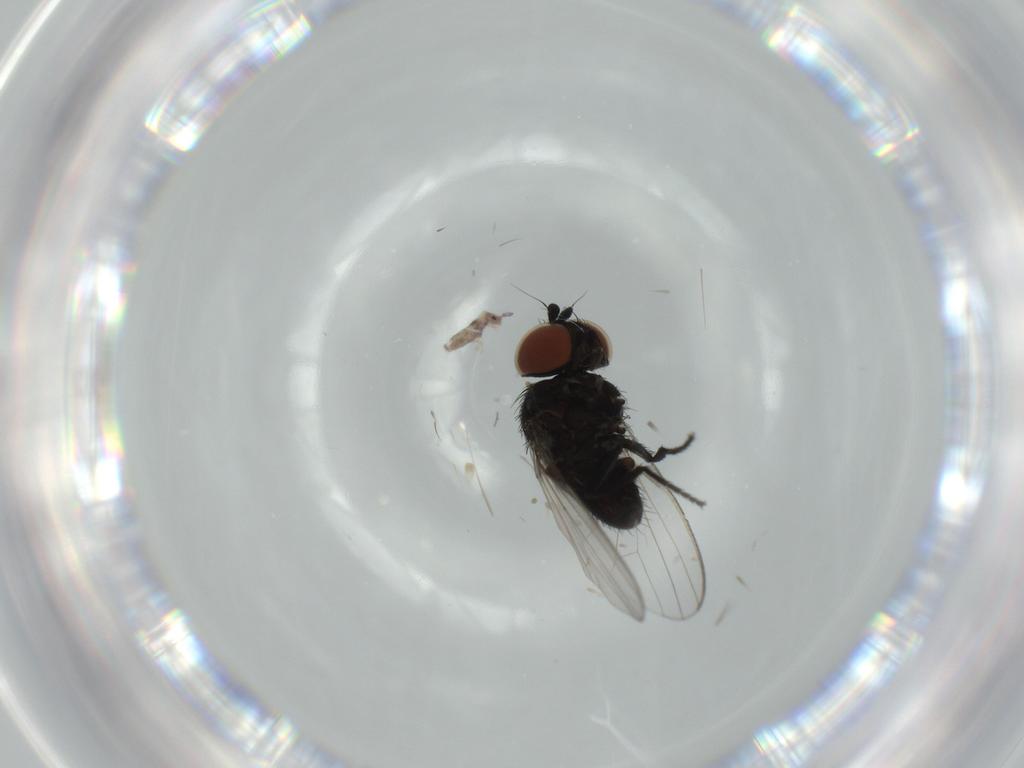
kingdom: Animalia
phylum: Arthropoda
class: Insecta
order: Diptera
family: Milichiidae
